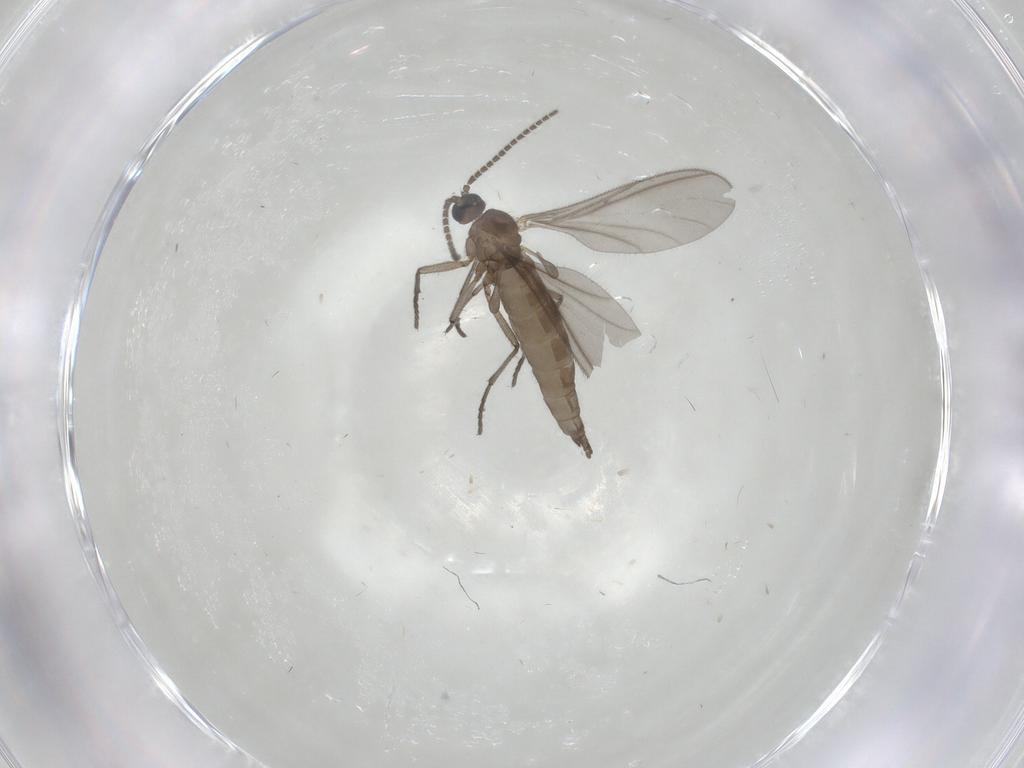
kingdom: Animalia
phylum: Arthropoda
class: Insecta
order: Diptera
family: Sciaridae
